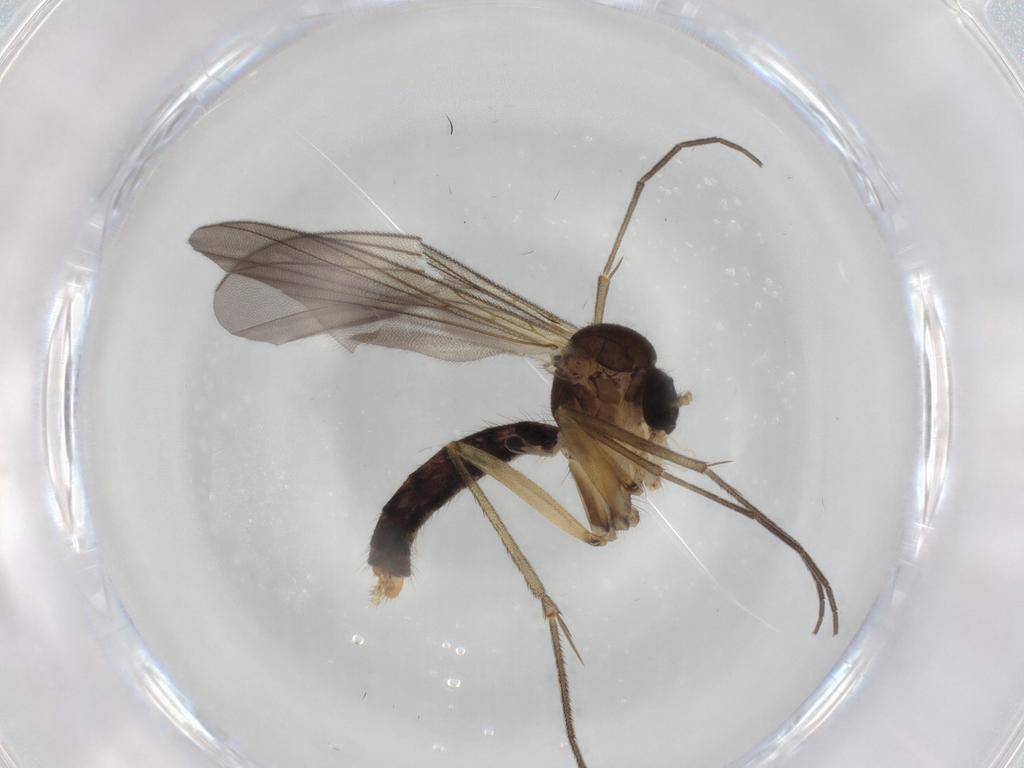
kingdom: Animalia
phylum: Arthropoda
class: Insecta
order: Diptera
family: Mycetophilidae
